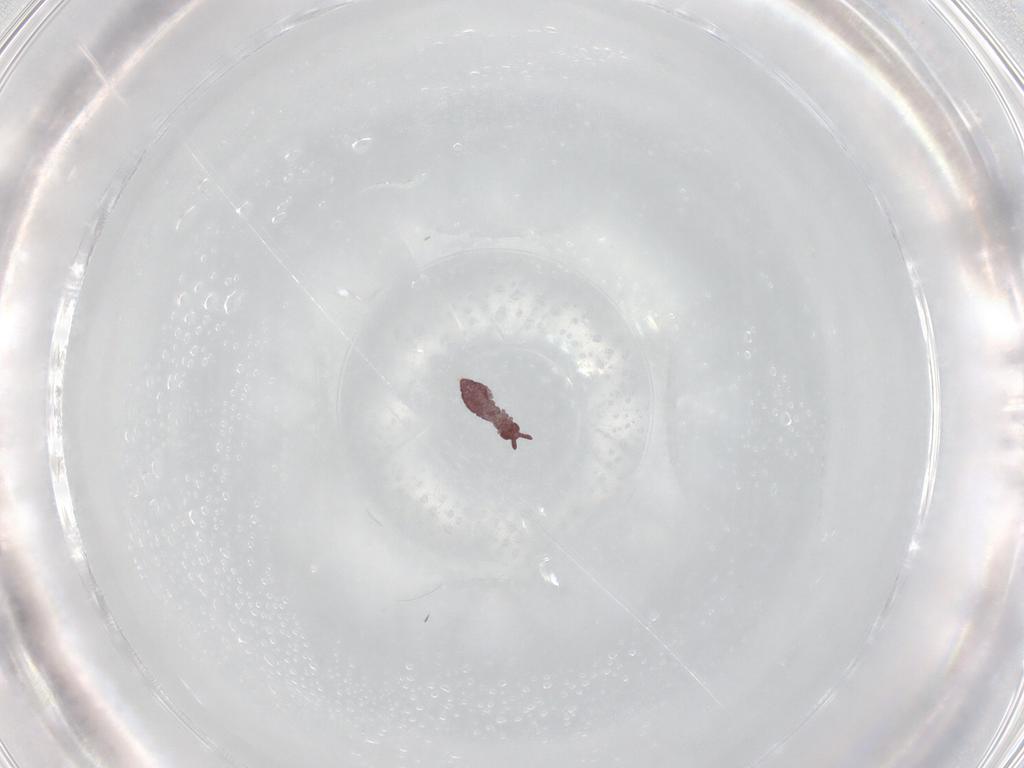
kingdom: Animalia
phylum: Arthropoda
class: Collembola
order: Poduromorpha
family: Hypogastruridae
